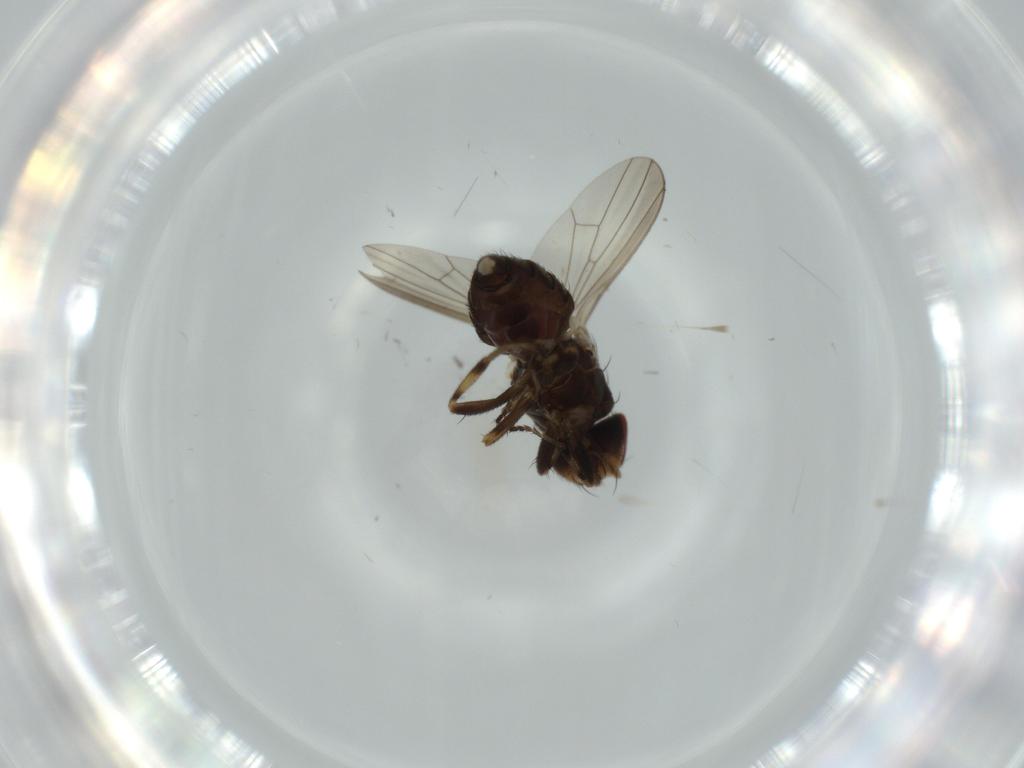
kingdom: Animalia
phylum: Arthropoda
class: Insecta
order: Diptera
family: Heleomyzidae
